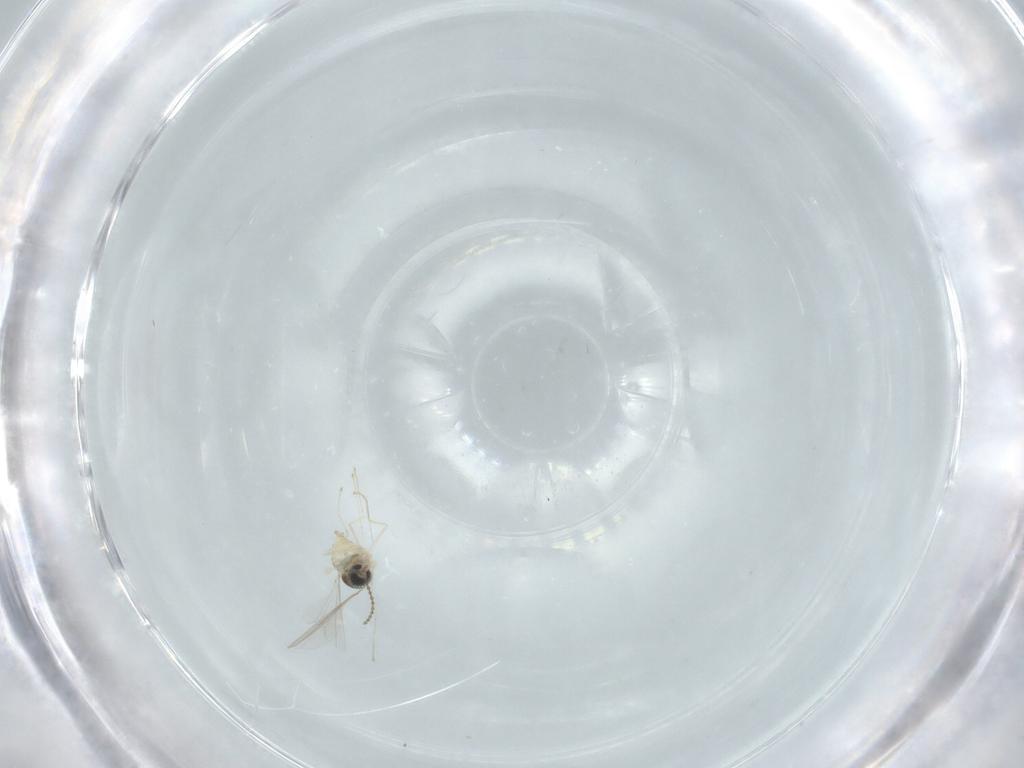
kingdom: Animalia
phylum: Arthropoda
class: Insecta
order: Diptera
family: Cecidomyiidae
